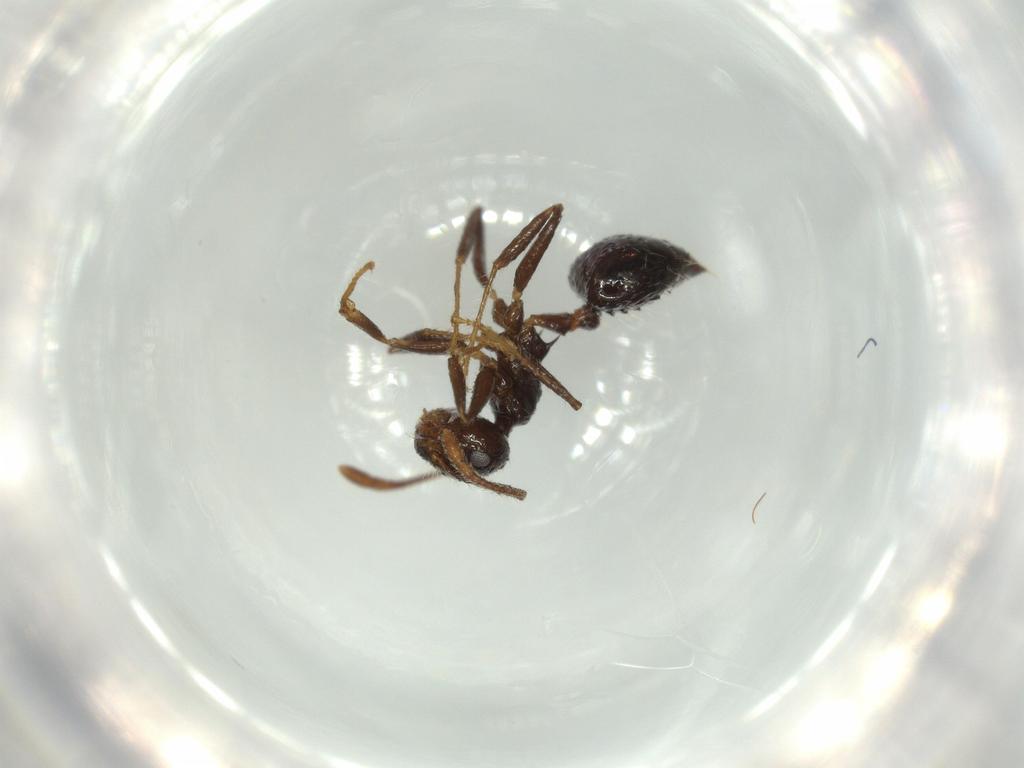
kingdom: Animalia
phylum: Arthropoda
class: Insecta
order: Hymenoptera
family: Formicidae
